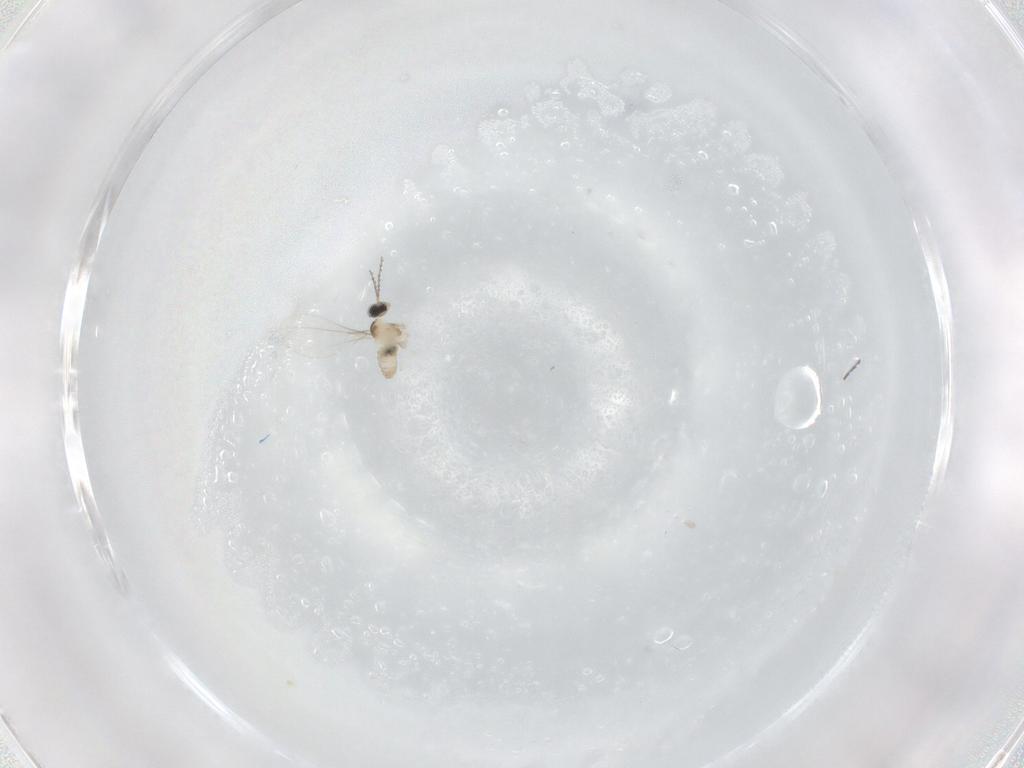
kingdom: Animalia
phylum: Arthropoda
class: Insecta
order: Diptera
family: Cecidomyiidae
